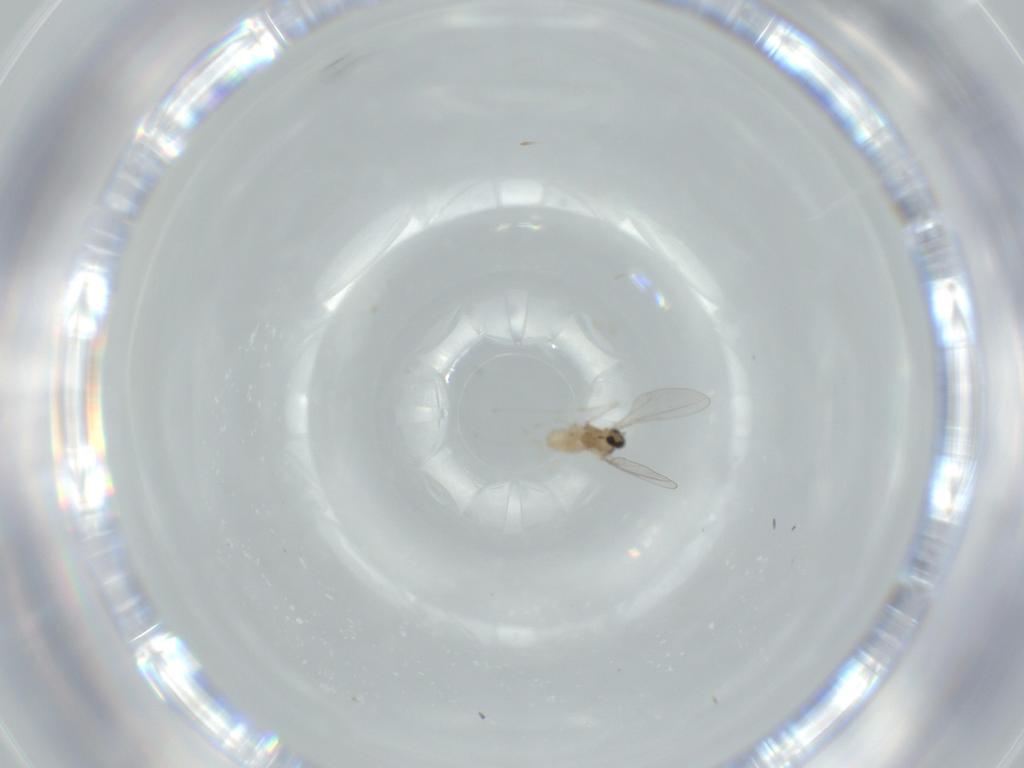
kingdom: Animalia
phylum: Arthropoda
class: Insecta
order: Diptera
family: Cecidomyiidae
